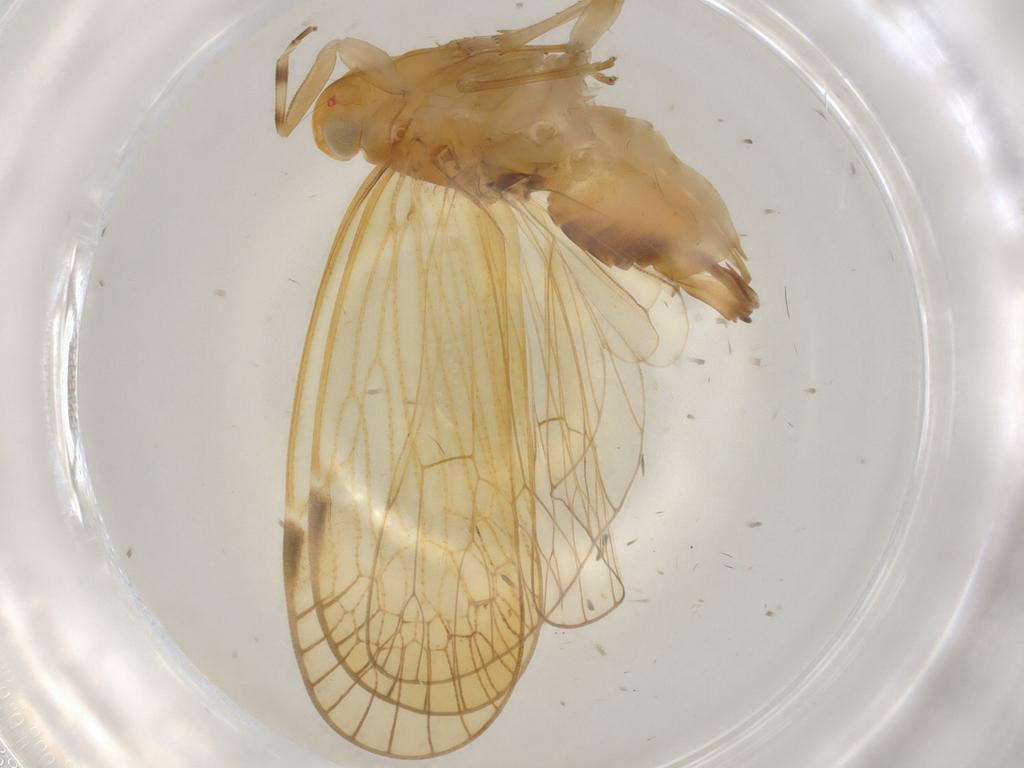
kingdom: Animalia
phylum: Arthropoda
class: Insecta
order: Hemiptera
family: Cixiidae
